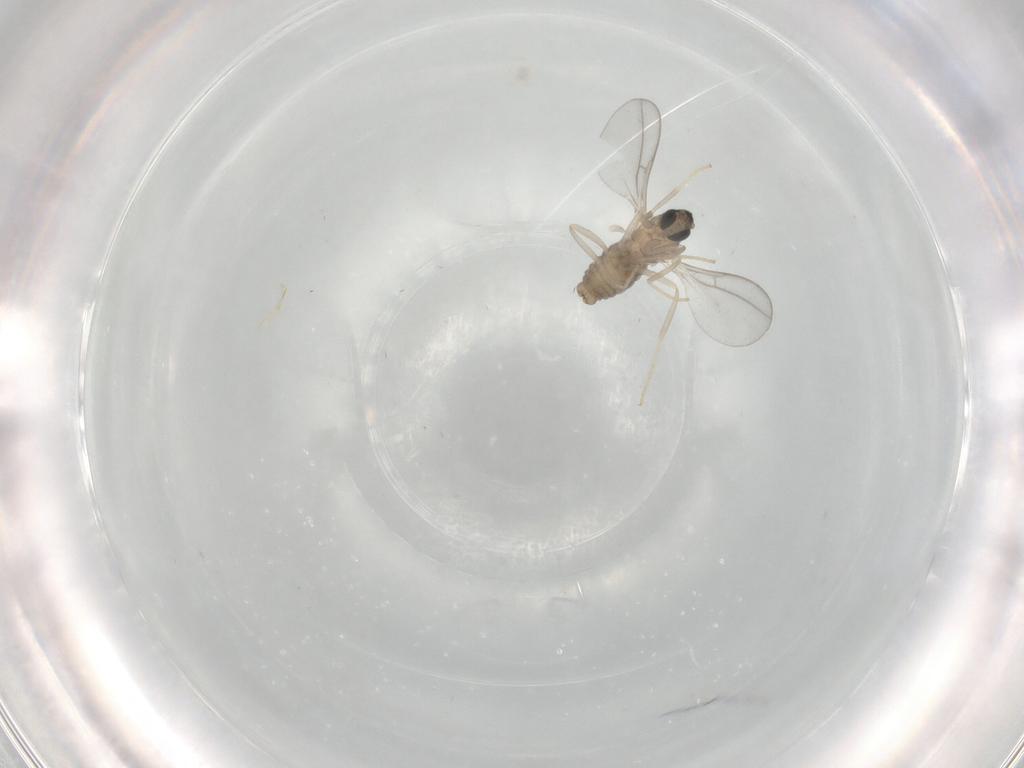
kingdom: Animalia
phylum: Arthropoda
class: Insecta
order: Diptera
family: Cecidomyiidae
